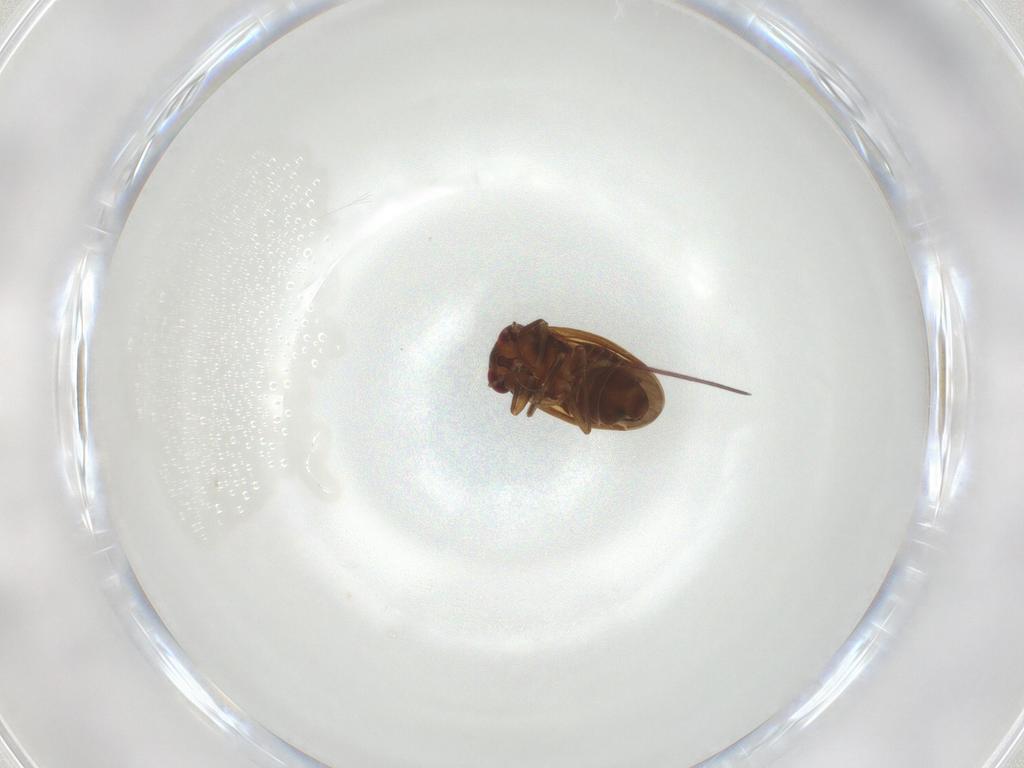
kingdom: Animalia
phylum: Arthropoda
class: Insecta
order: Hemiptera
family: Schizopteridae
